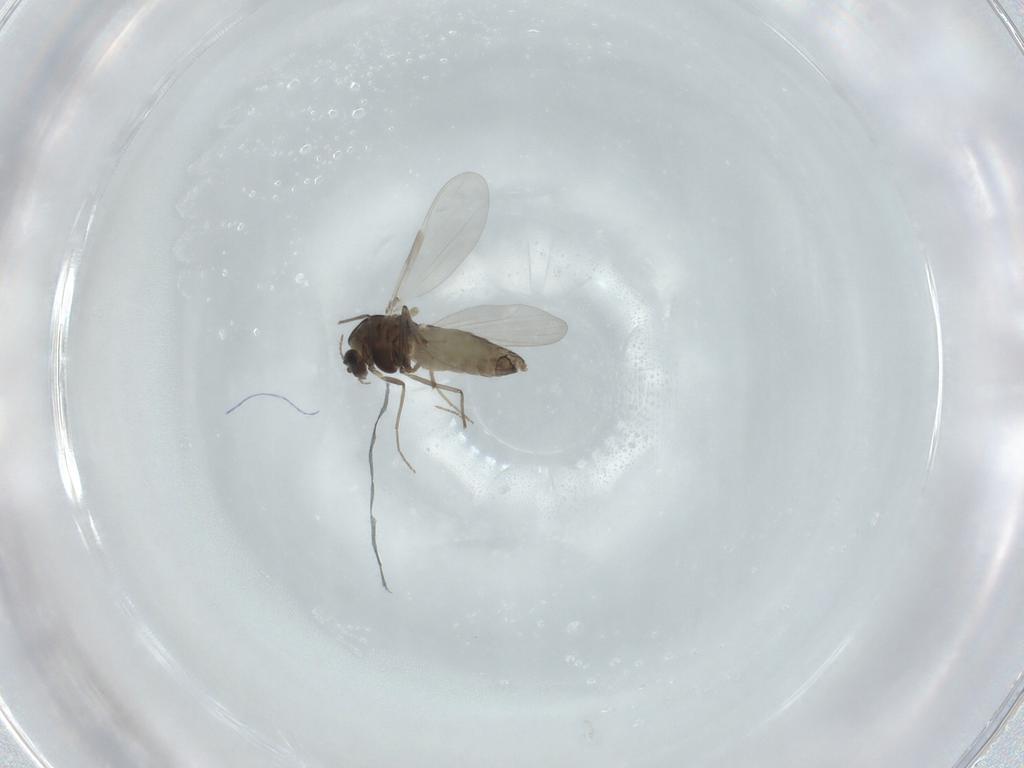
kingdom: Animalia
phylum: Arthropoda
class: Insecta
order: Diptera
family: Chironomidae
